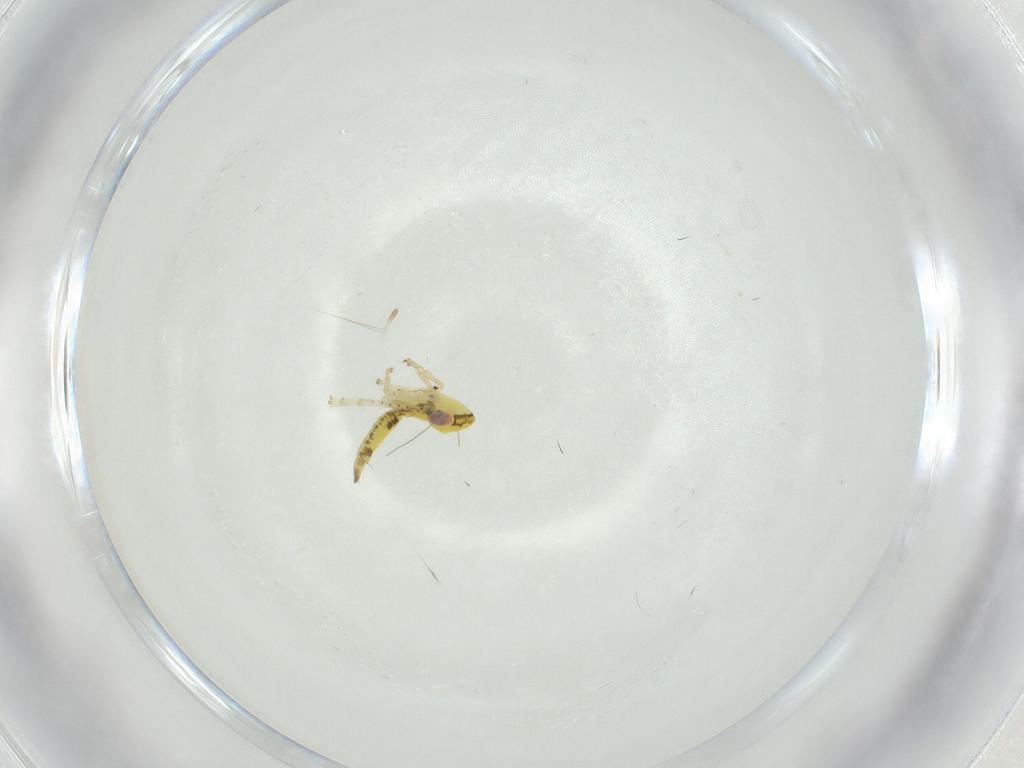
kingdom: Animalia
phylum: Arthropoda
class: Insecta
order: Hemiptera
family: Cicadellidae
